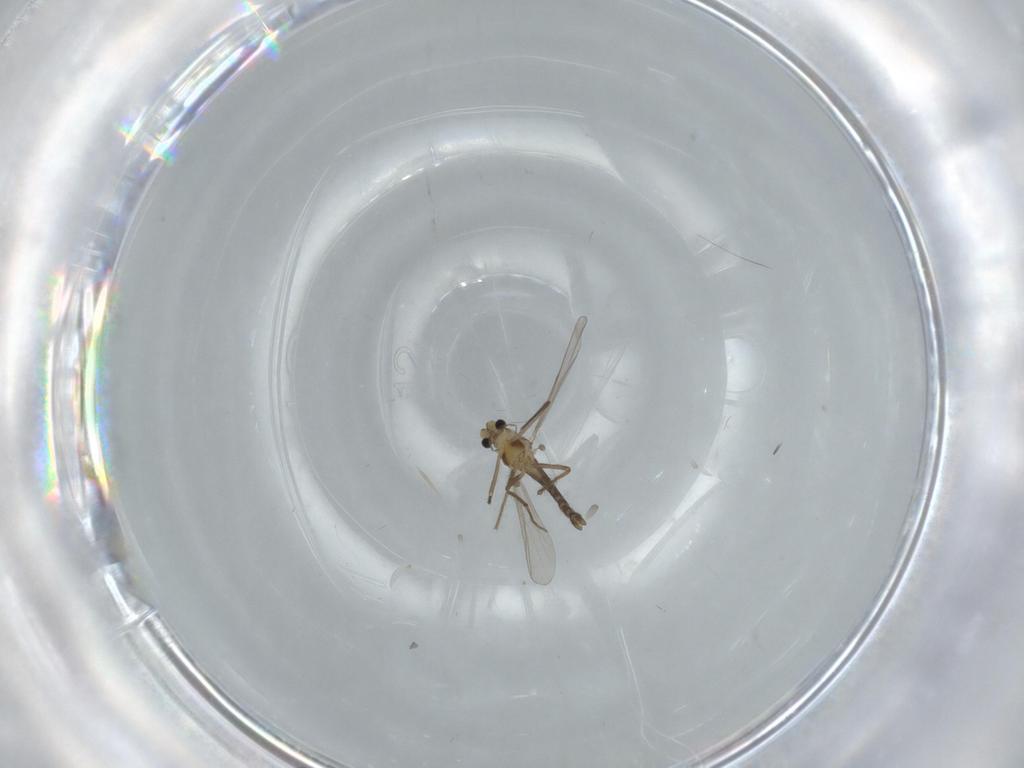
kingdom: Animalia
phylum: Arthropoda
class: Insecta
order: Diptera
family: Chironomidae
